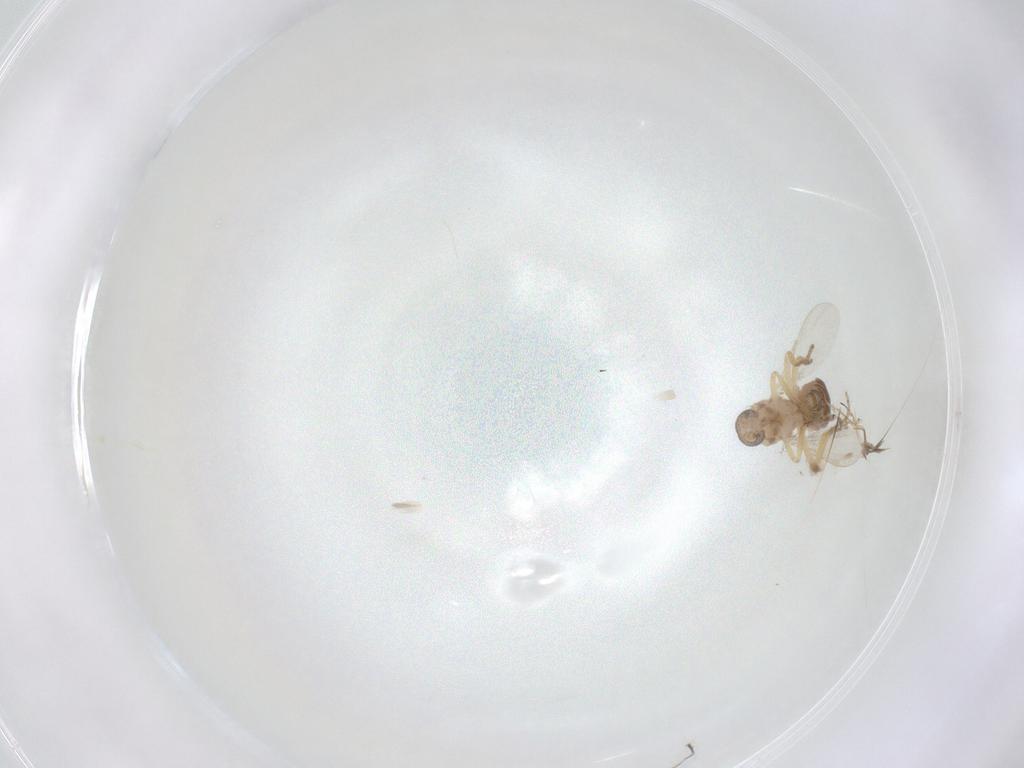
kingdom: Animalia
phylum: Arthropoda
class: Insecta
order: Diptera
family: Ceratopogonidae
